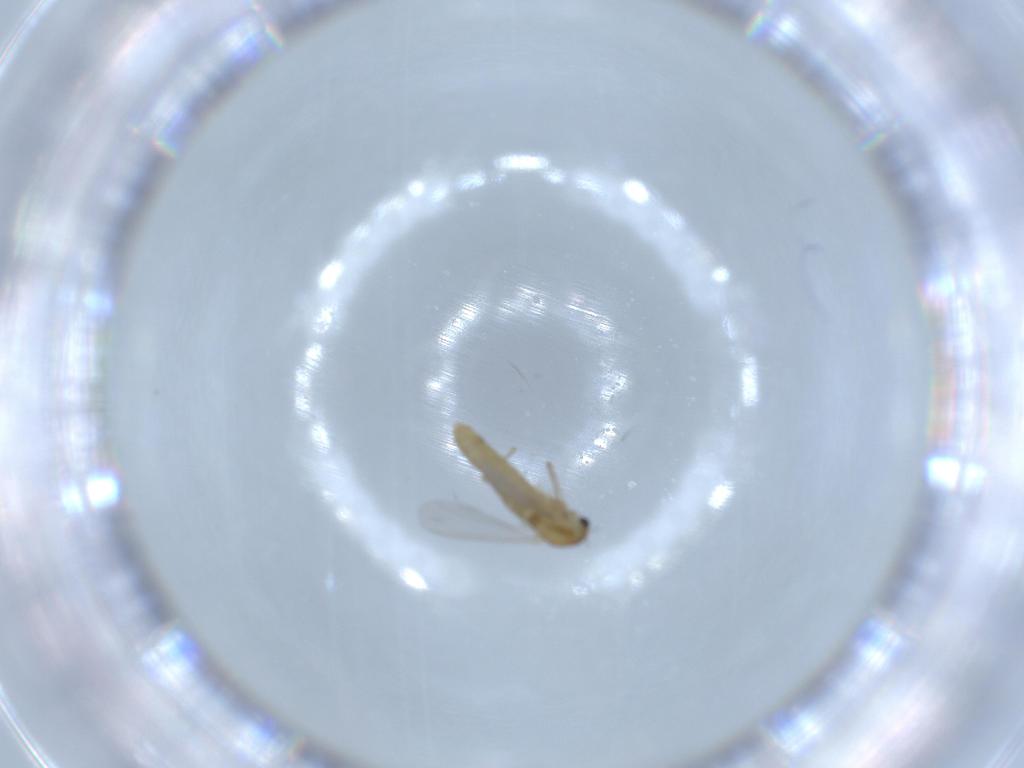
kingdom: Animalia
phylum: Arthropoda
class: Insecta
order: Diptera
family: Chironomidae
